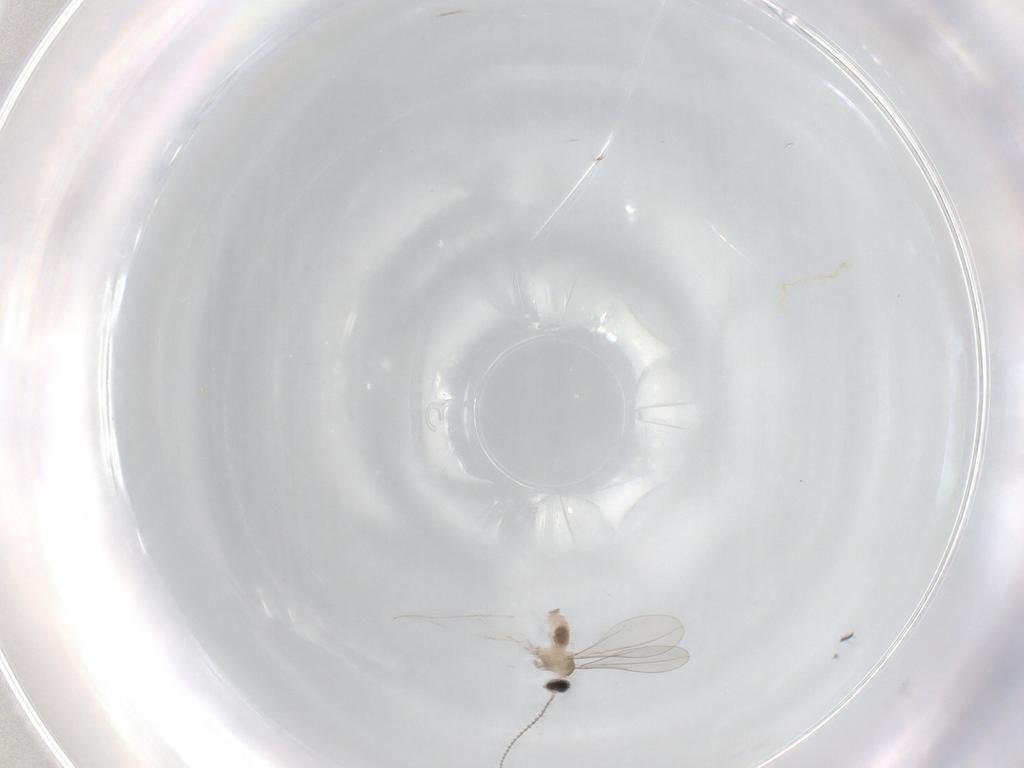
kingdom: Animalia
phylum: Arthropoda
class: Insecta
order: Diptera
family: Cecidomyiidae
